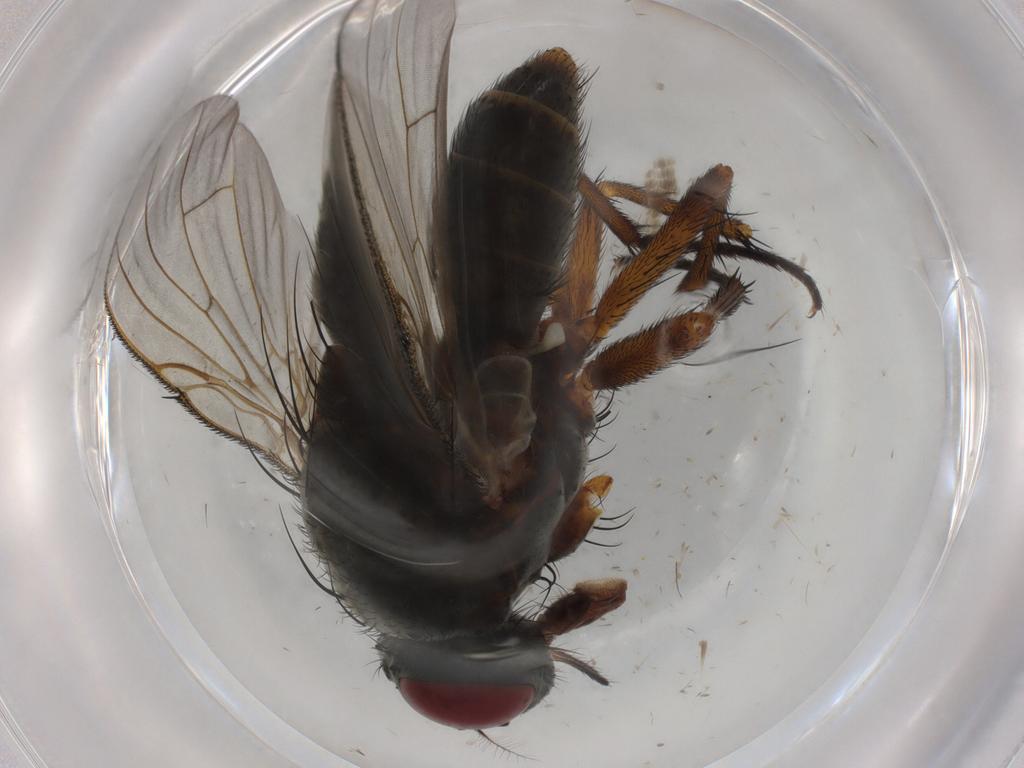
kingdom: Animalia
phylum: Arthropoda
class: Insecta
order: Diptera
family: Muscidae
